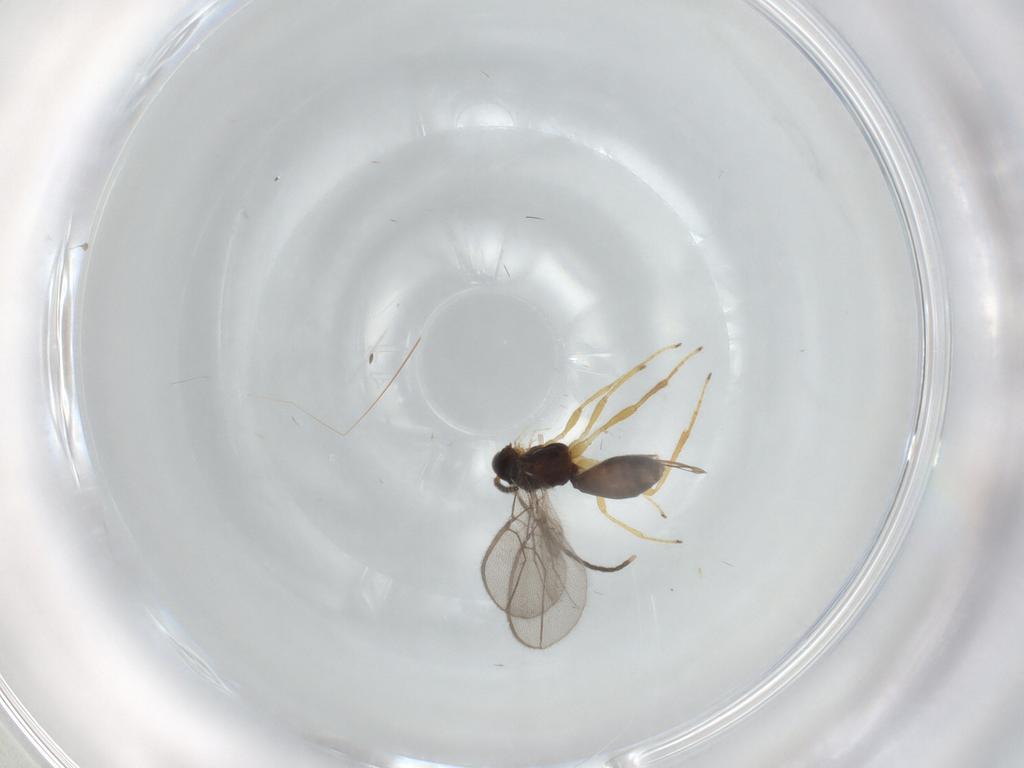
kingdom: Animalia
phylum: Arthropoda
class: Insecta
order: Hymenoptera
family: Braconidae
